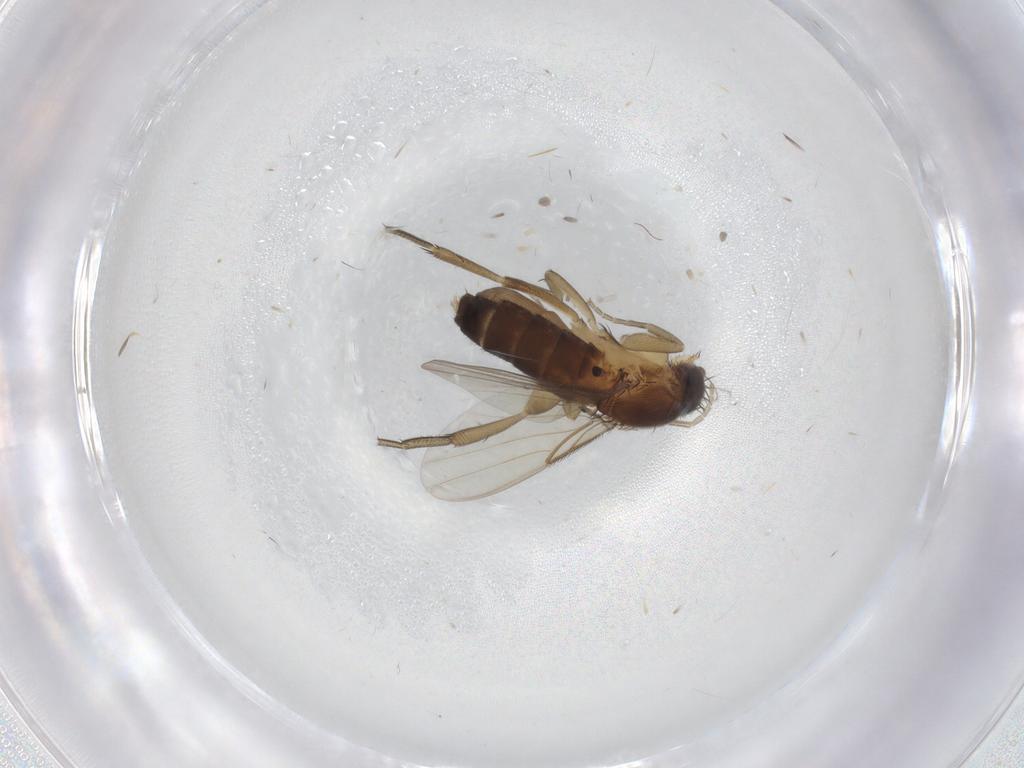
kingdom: Animalia
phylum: Arthropoda
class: Insecta
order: Diptera
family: Phoridae
